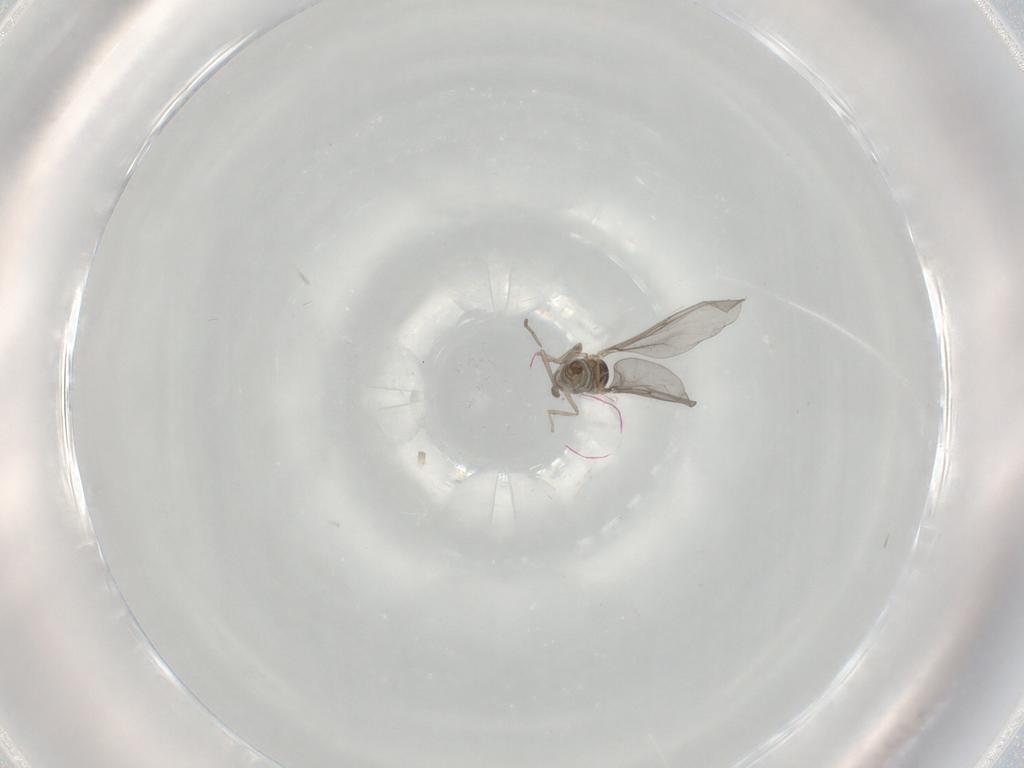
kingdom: Animalia
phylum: Arthropoda
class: Insecta
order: Diptera
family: Cecidomyiidae
